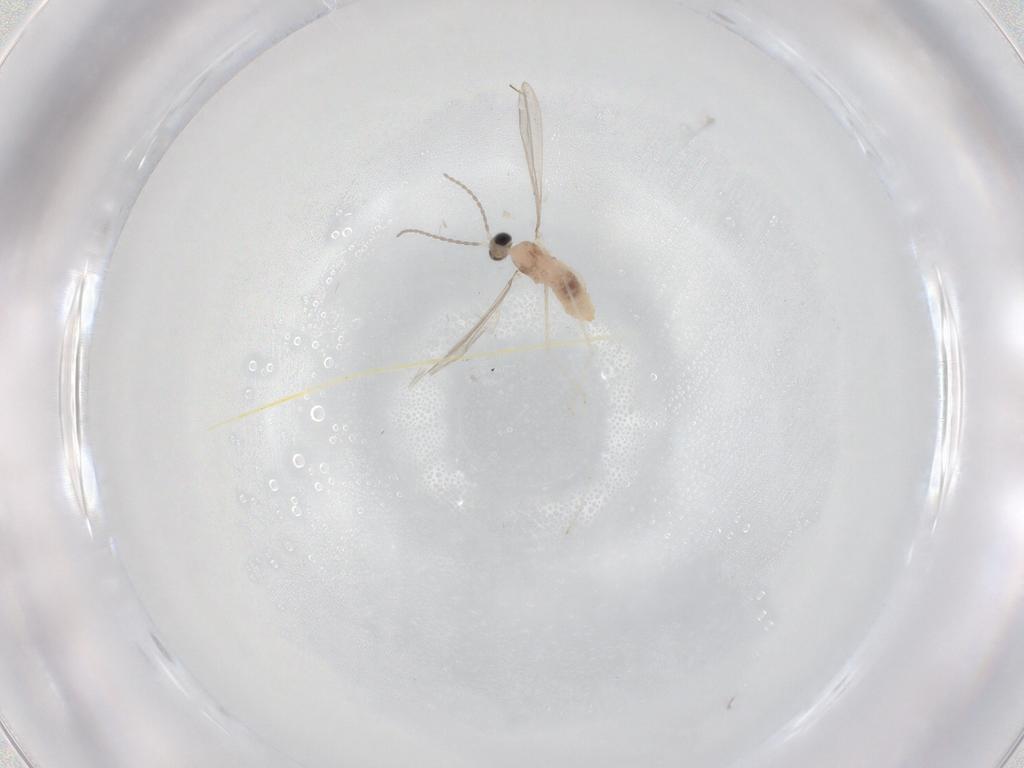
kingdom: Animalia
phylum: Arthropoda
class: Insecta
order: Diptera
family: Cecidomyiidae
